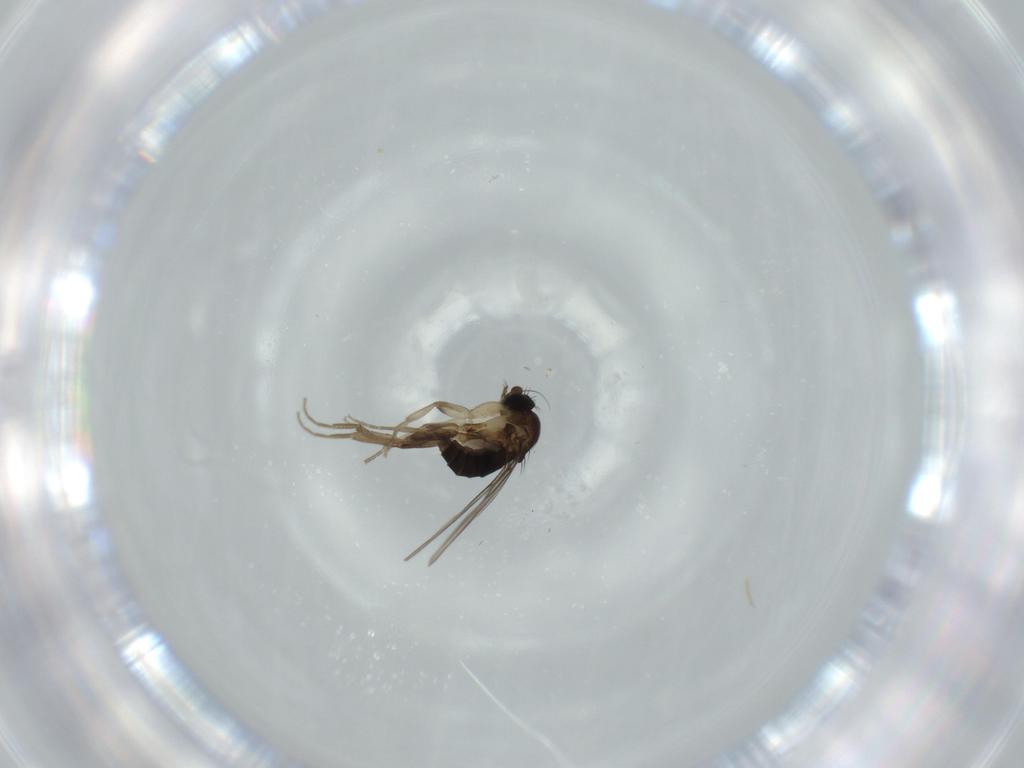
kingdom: Animalia
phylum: Arthropoda
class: Insecta
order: Diptera
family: Phoridae
